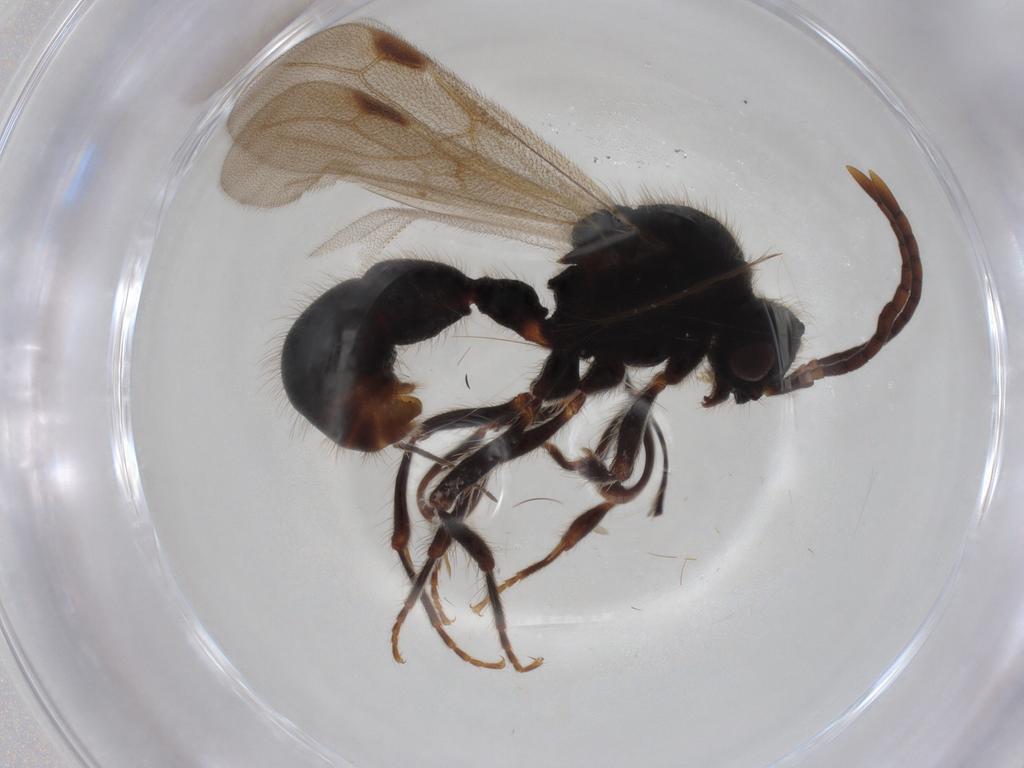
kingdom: Animalia
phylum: Arthropoda
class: Insecta
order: Hymenoptera
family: Formicidae
